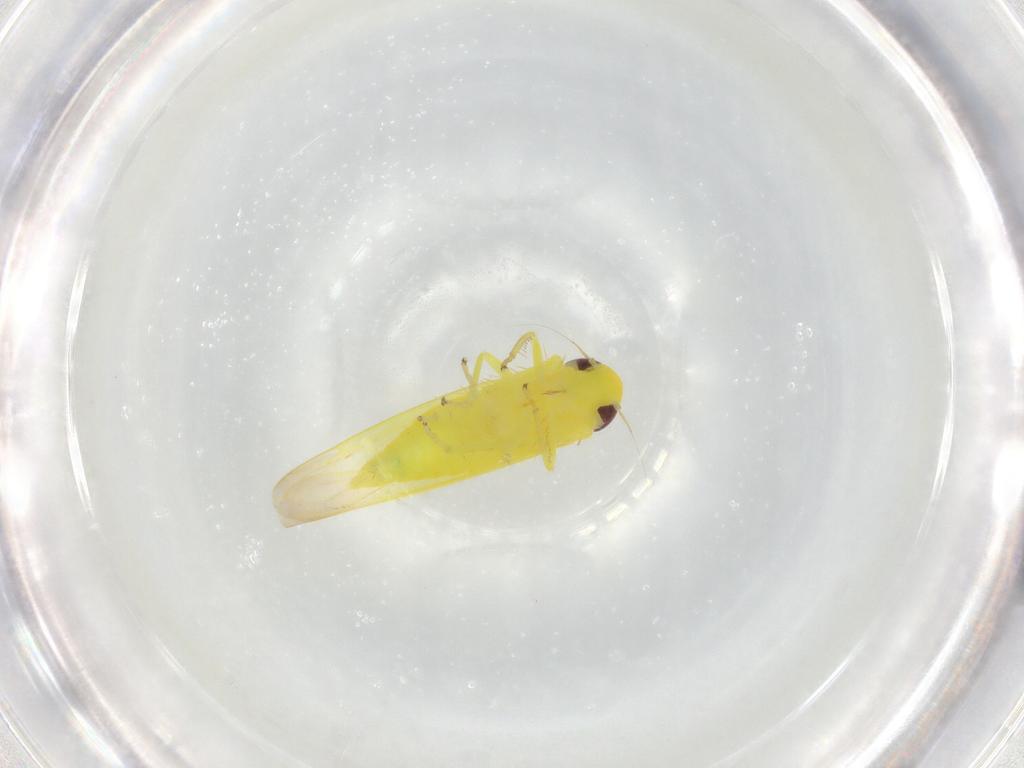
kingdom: Animalia
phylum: Arthropoda
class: Insecta
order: Hemiptera
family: Cicadellidae
